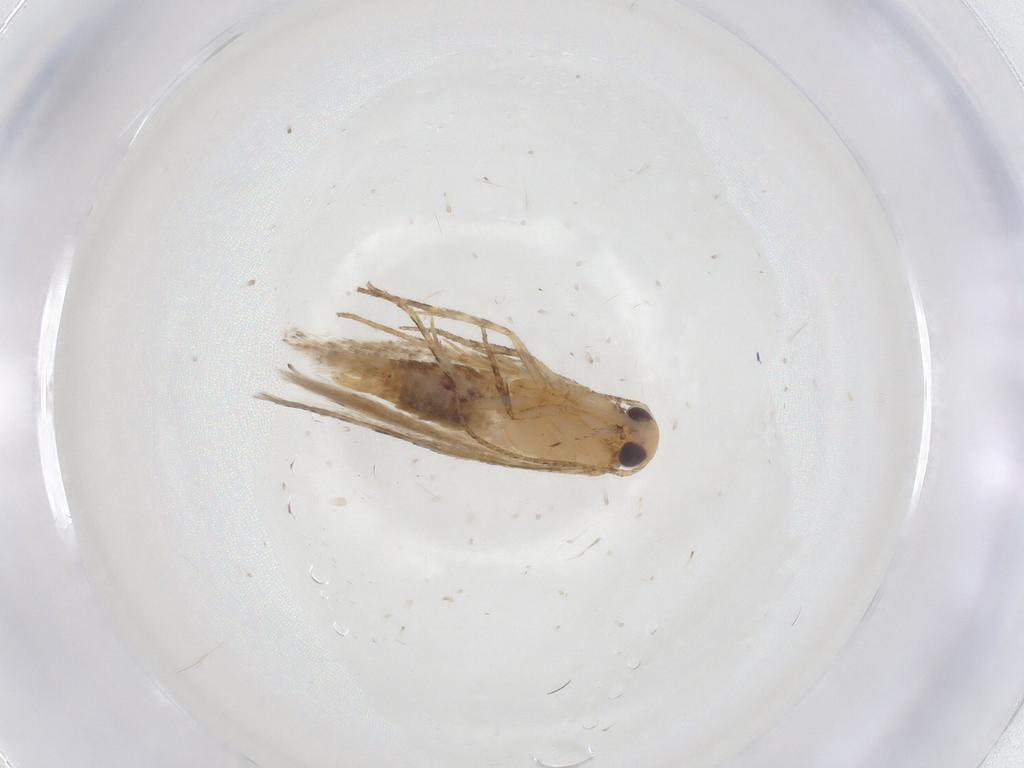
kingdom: Animalia
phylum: Arthropoda
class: Insecta
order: Lepidoptera
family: Gelechiidae
